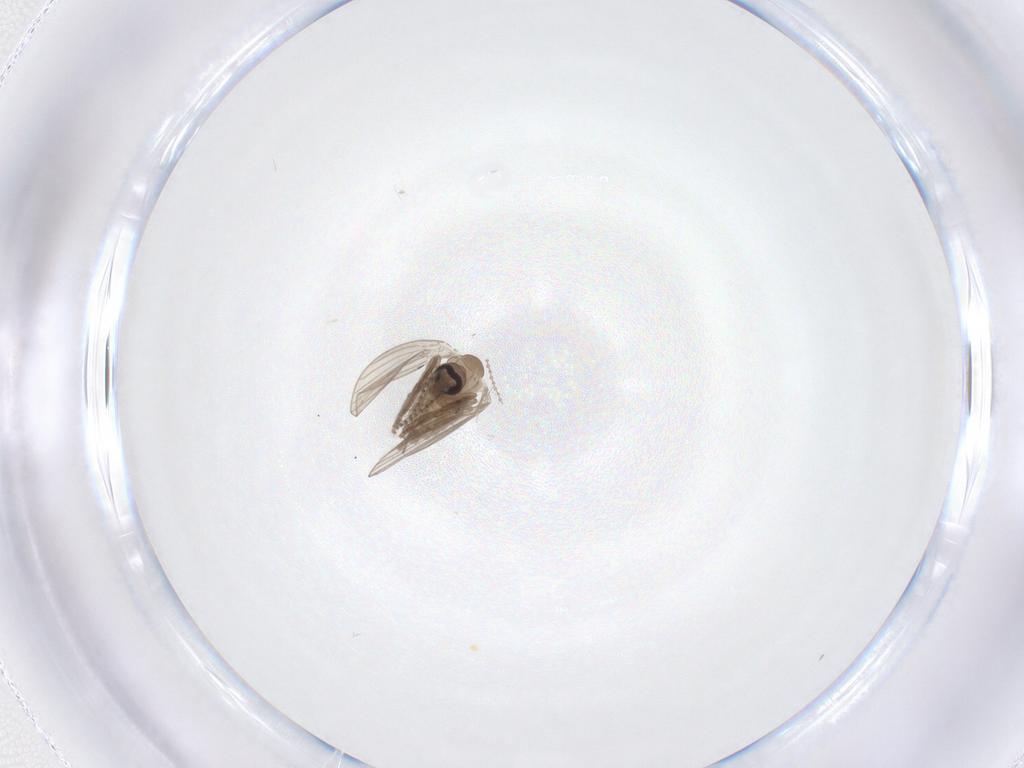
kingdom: Animalia
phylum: Arthropoda
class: Insecta
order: Diptera
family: Psychodidae
